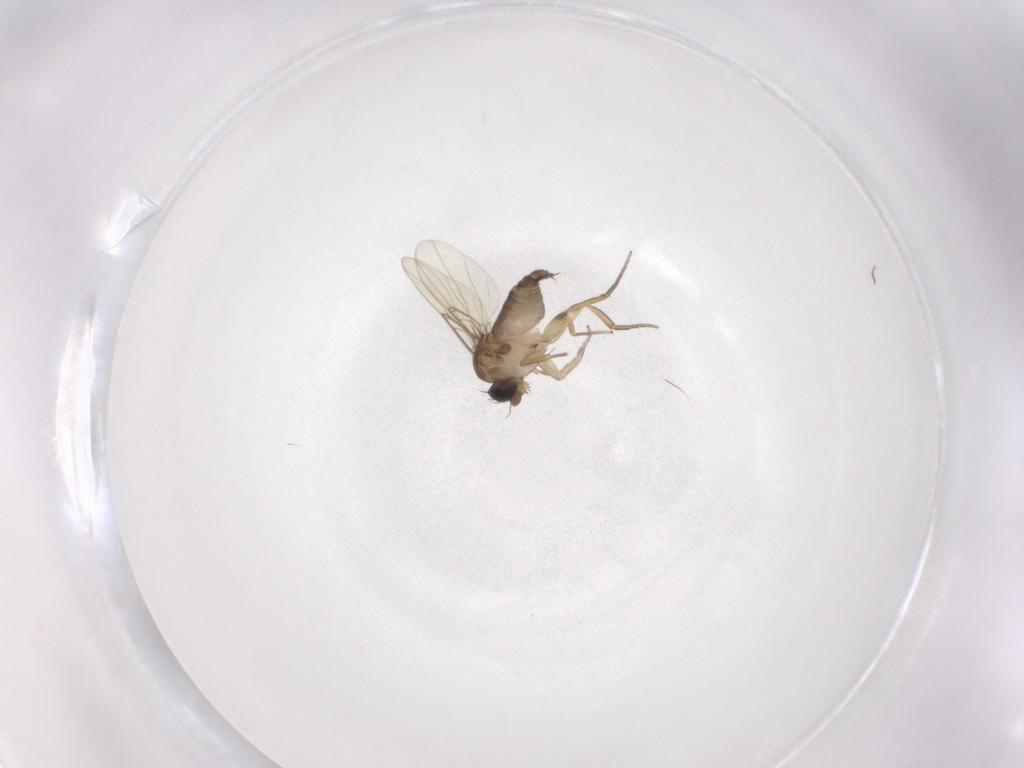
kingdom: Animalia
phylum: Arthropoda
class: Insecta
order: Diptera
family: Phoridae
